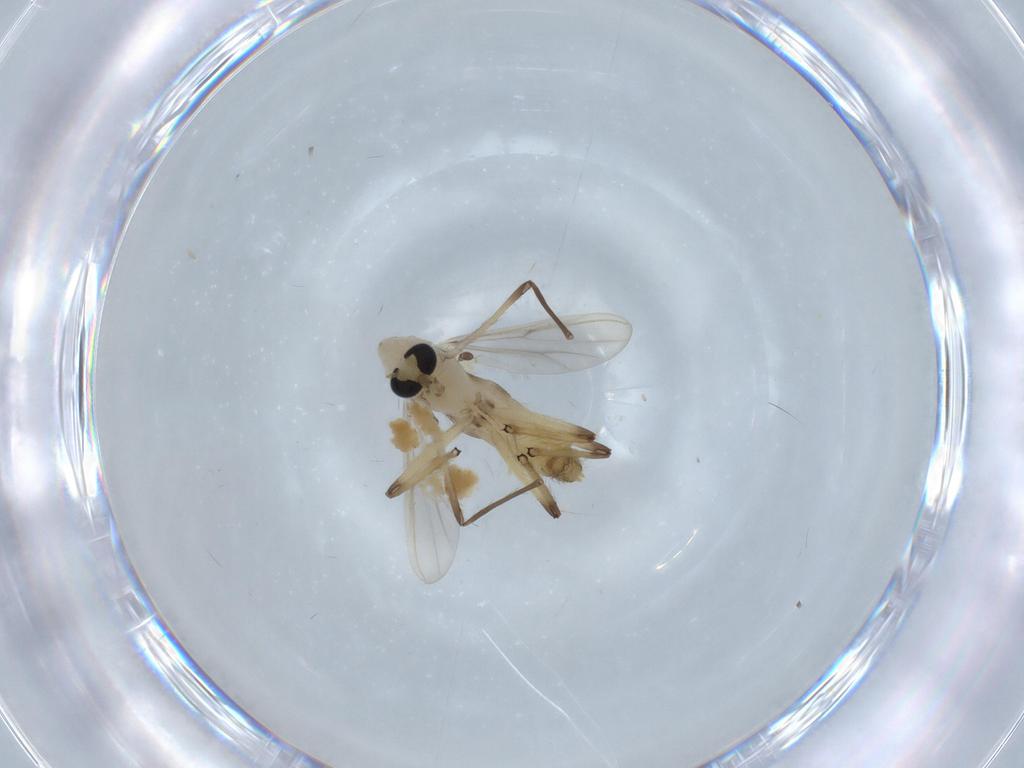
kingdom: Animalia
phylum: Arthropoda
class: Insecta
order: Diptera
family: Chironomidae
